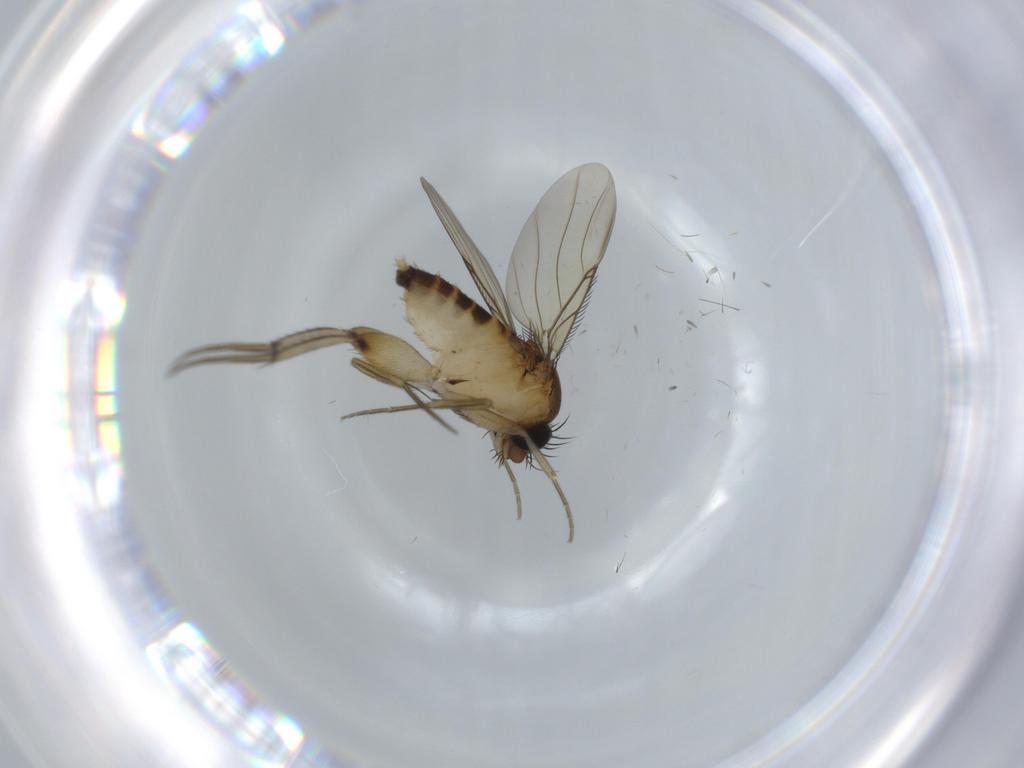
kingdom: Animalia
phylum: Arthropoda
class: Insecta
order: Diptera
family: Phoridae
